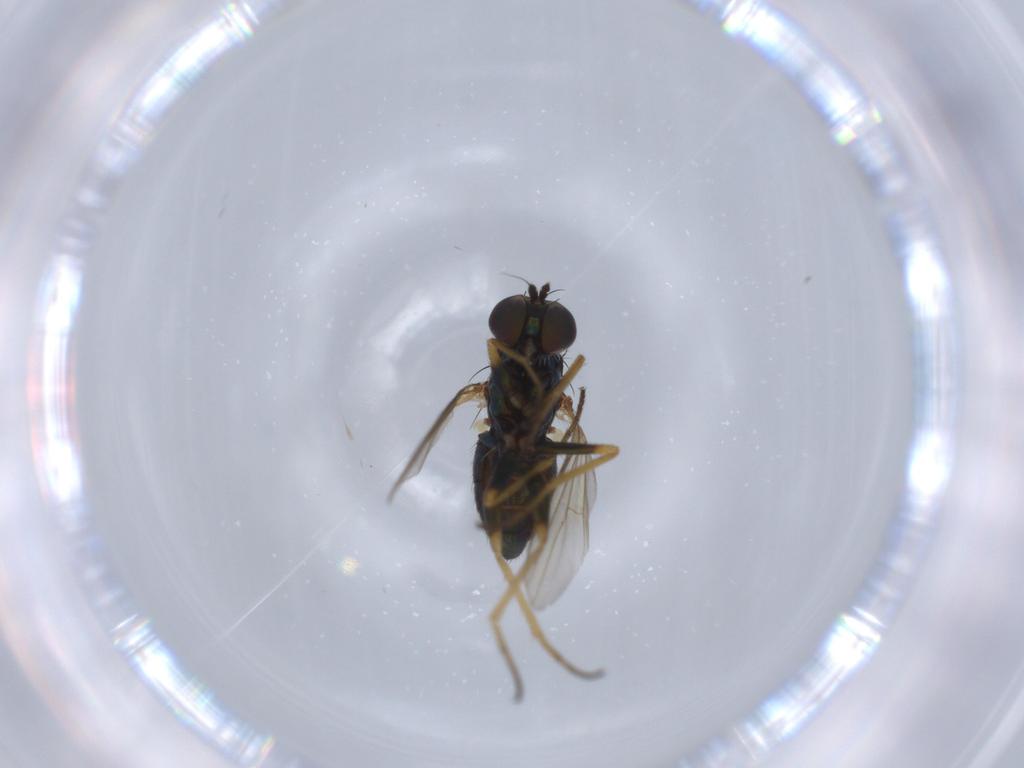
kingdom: Animalia
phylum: Arthropoda
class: Insecta
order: Diptera
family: Dolichopodidae
